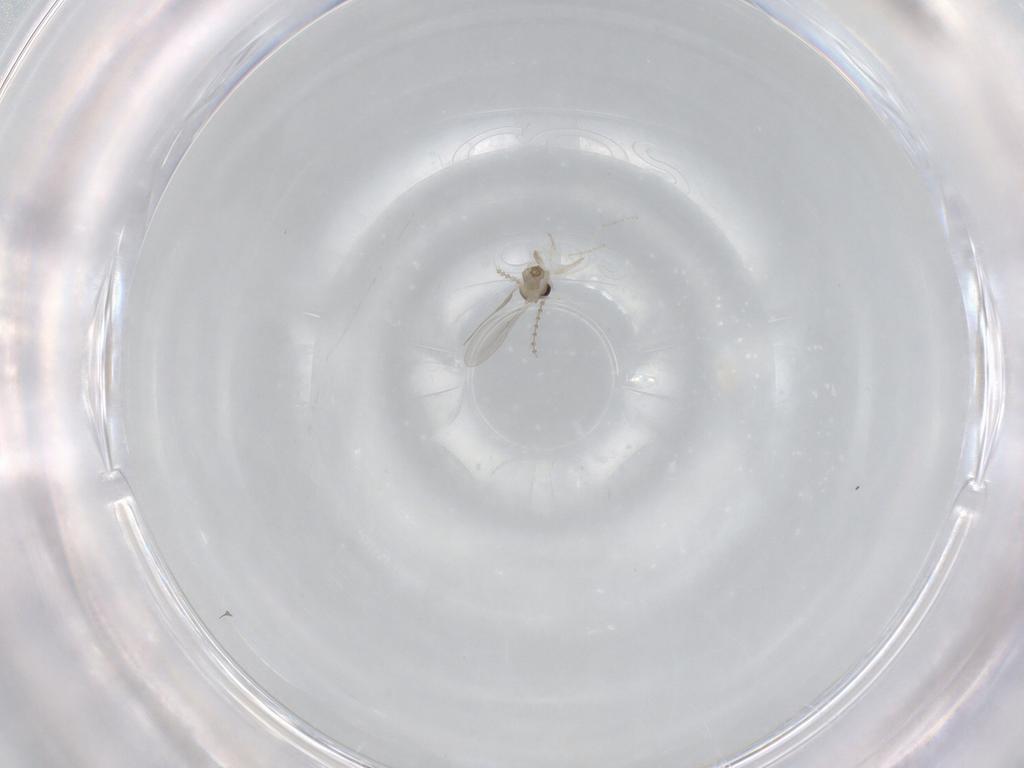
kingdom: Animalia
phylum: Arthropoda
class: Insecta
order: Diptera
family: Cecidomyiidae
